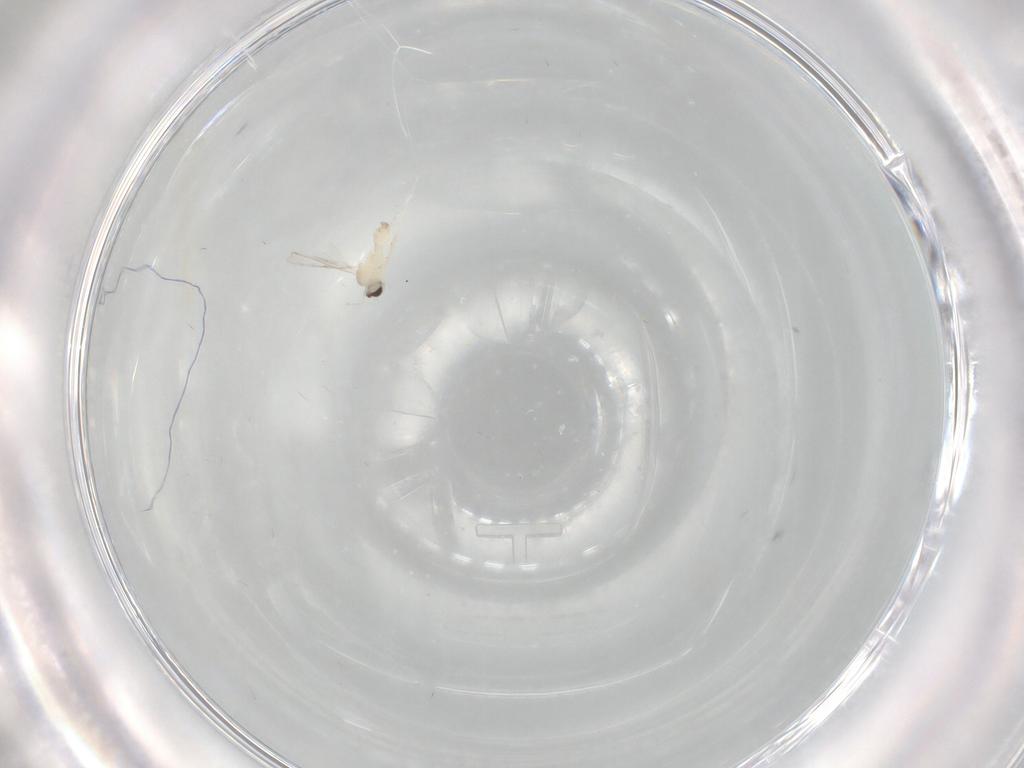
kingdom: Animalia
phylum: Arthropoda
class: Insecta
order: Diptera
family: Cecidomyiidae
